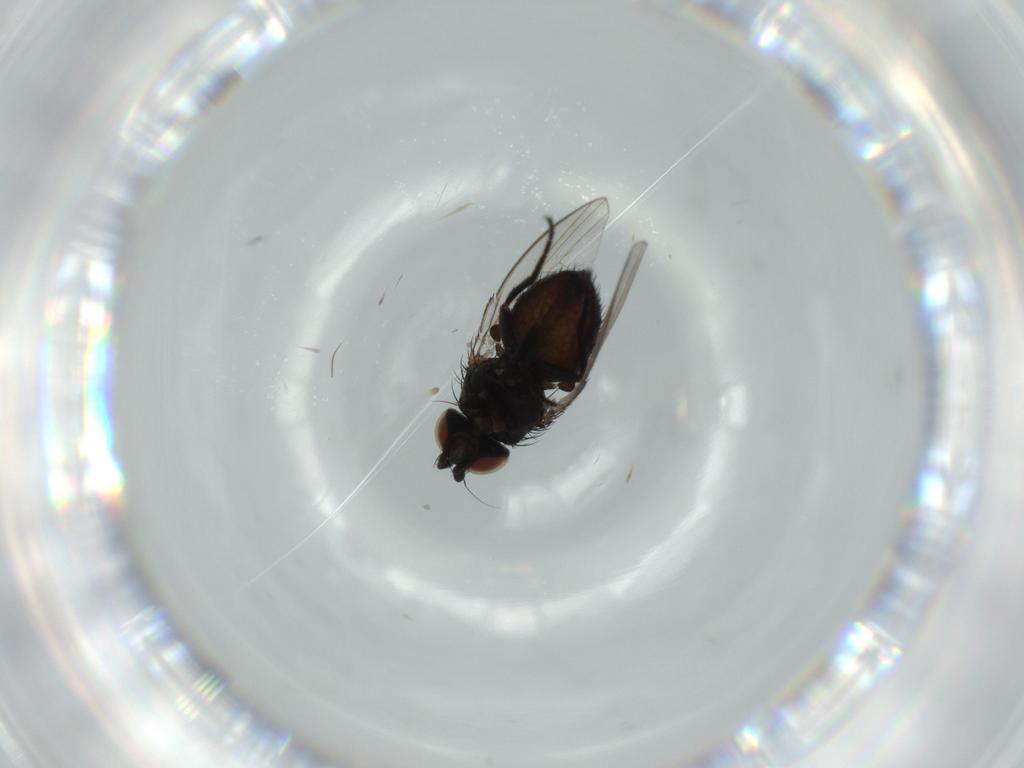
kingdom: Animalia
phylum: Arthropoda
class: Insecta
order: Diptera
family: Milichiidae
